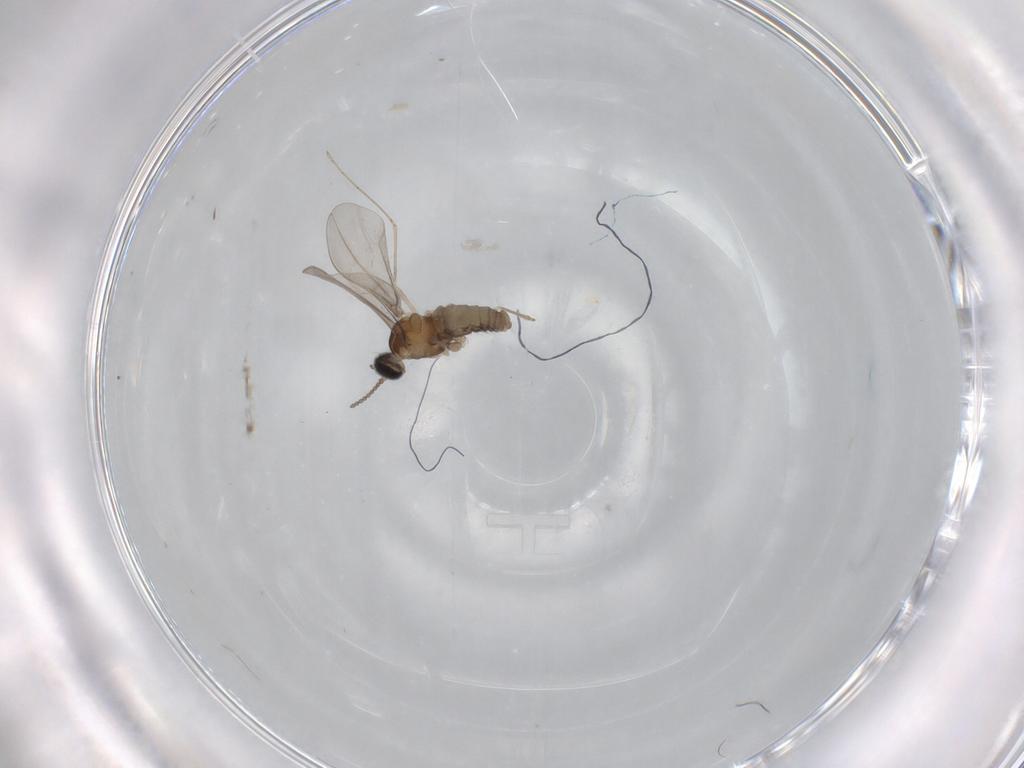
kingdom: Animalia
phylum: Arthropoda
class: Insecta
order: Diptera
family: Cecidomyiidae
